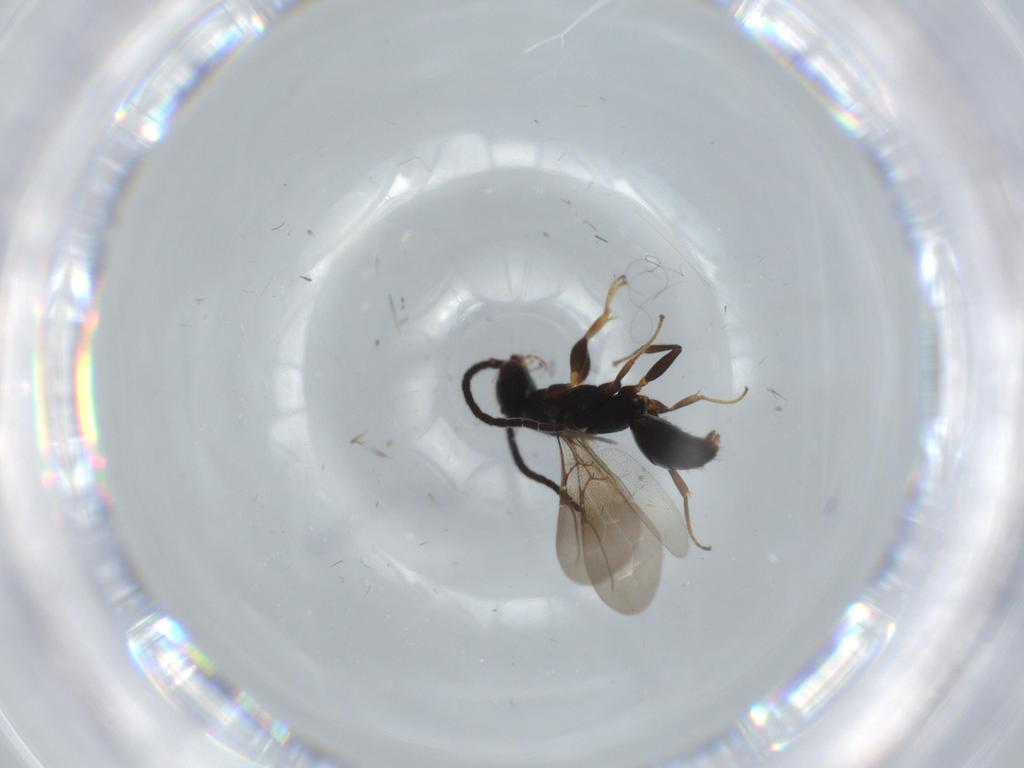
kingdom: Animalia
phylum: Arthropoda
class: Insecta
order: Hymenoptera
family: Bethylidae
